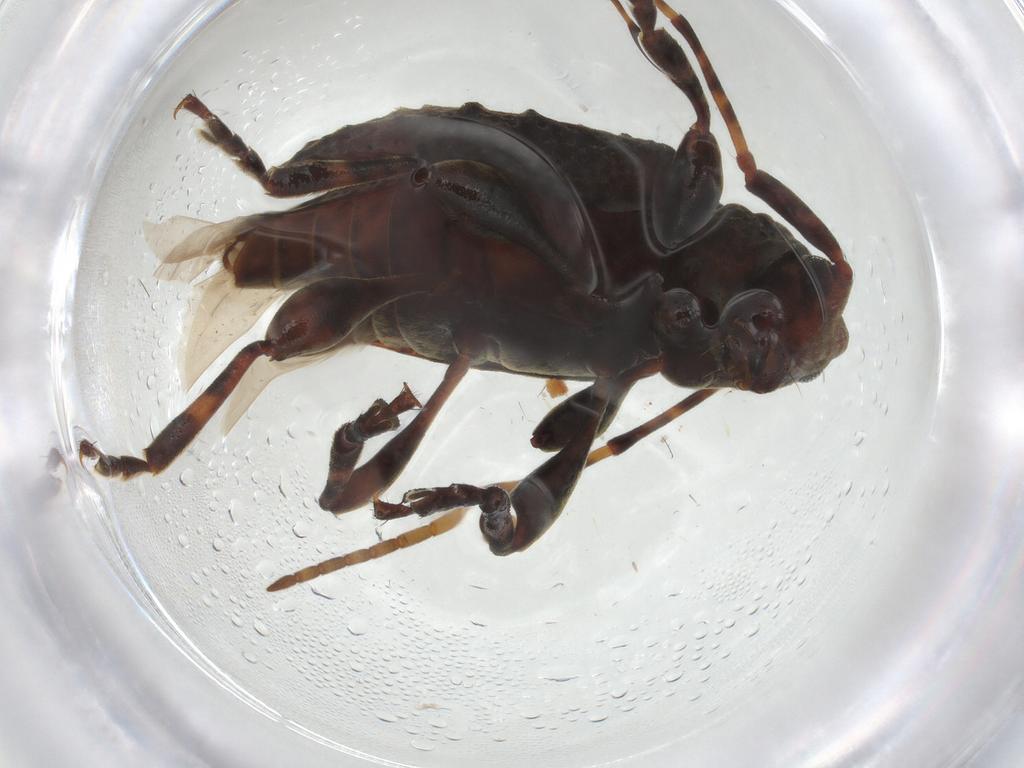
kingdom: Animalia
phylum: Arthropoda
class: Insecta
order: Coleoptera
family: Cerambycidae
